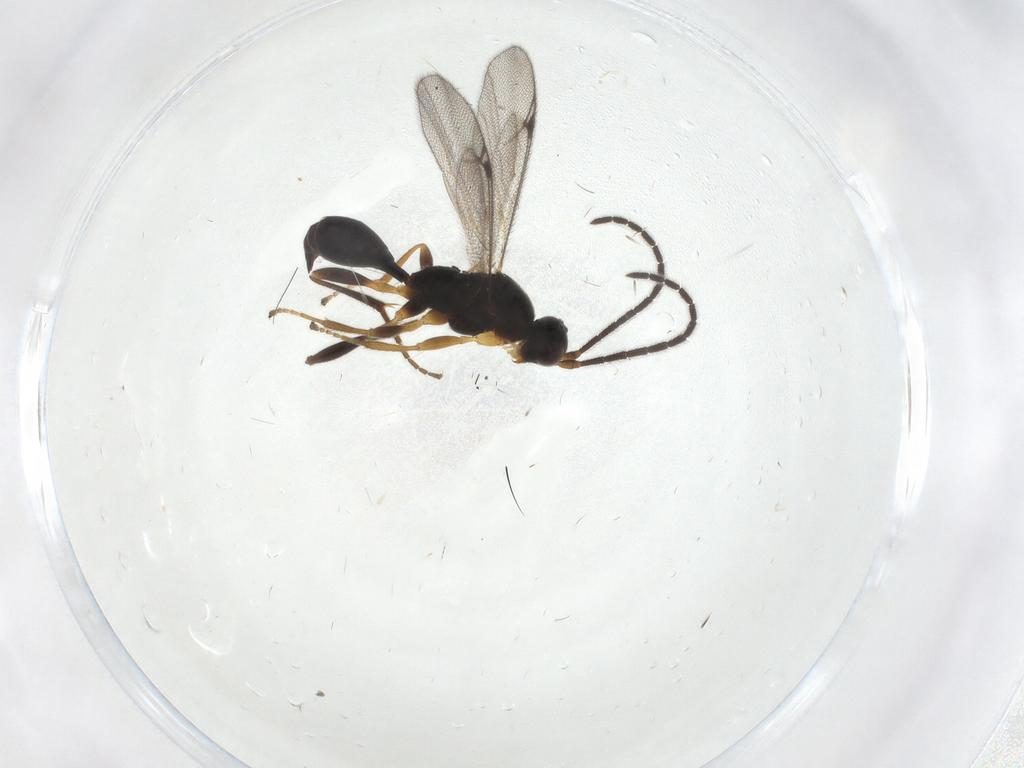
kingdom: Animalia
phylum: Arthropoda
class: Insecta
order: Hymenoptera
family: Proctotrupidae
